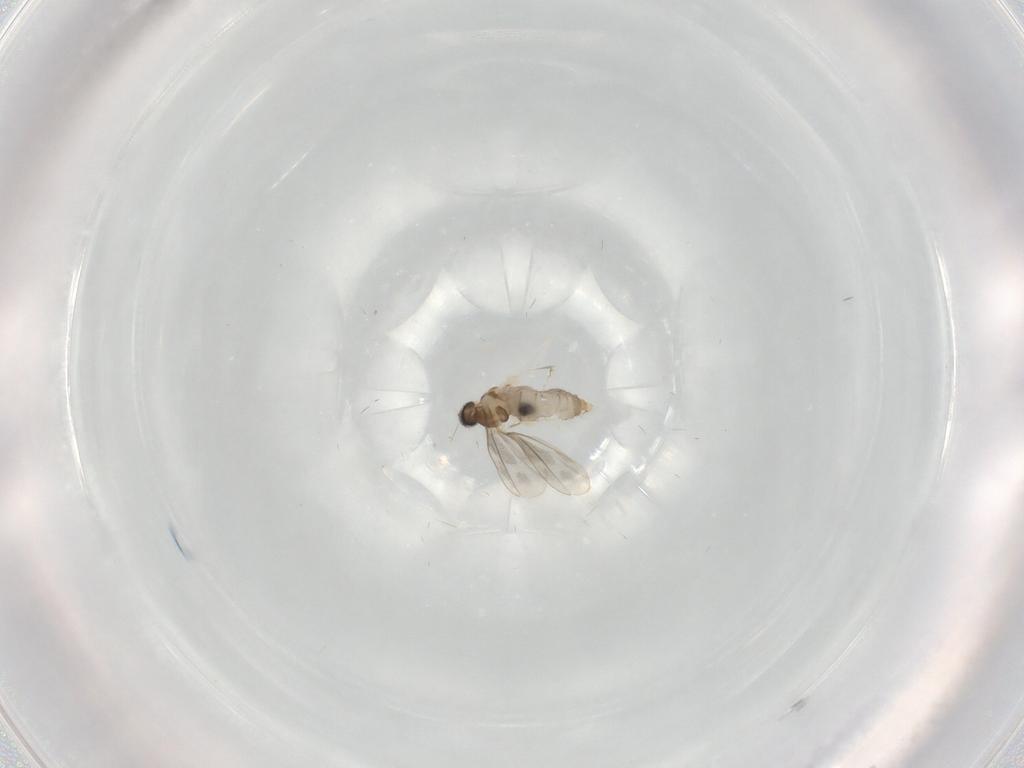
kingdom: Animalia
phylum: Arthropoda
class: Insecta
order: Diptera
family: Cecidomyiidae
